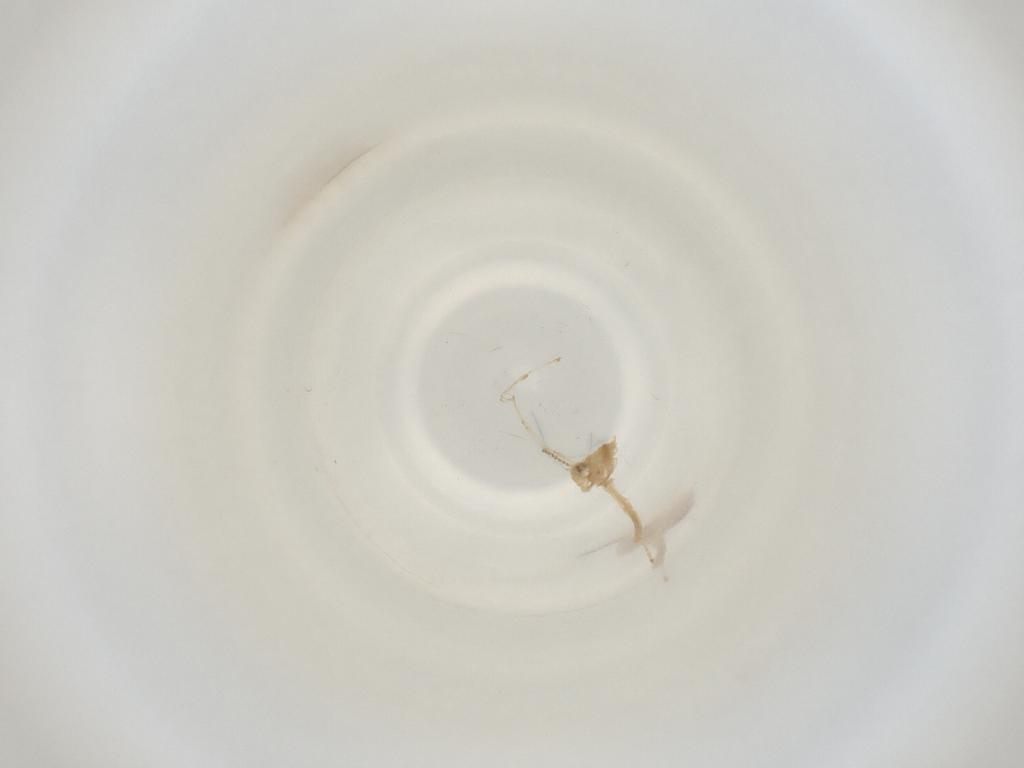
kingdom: Animalia
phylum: Arthropoda
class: Insecta
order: Diptera
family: Cecidomyiidae
